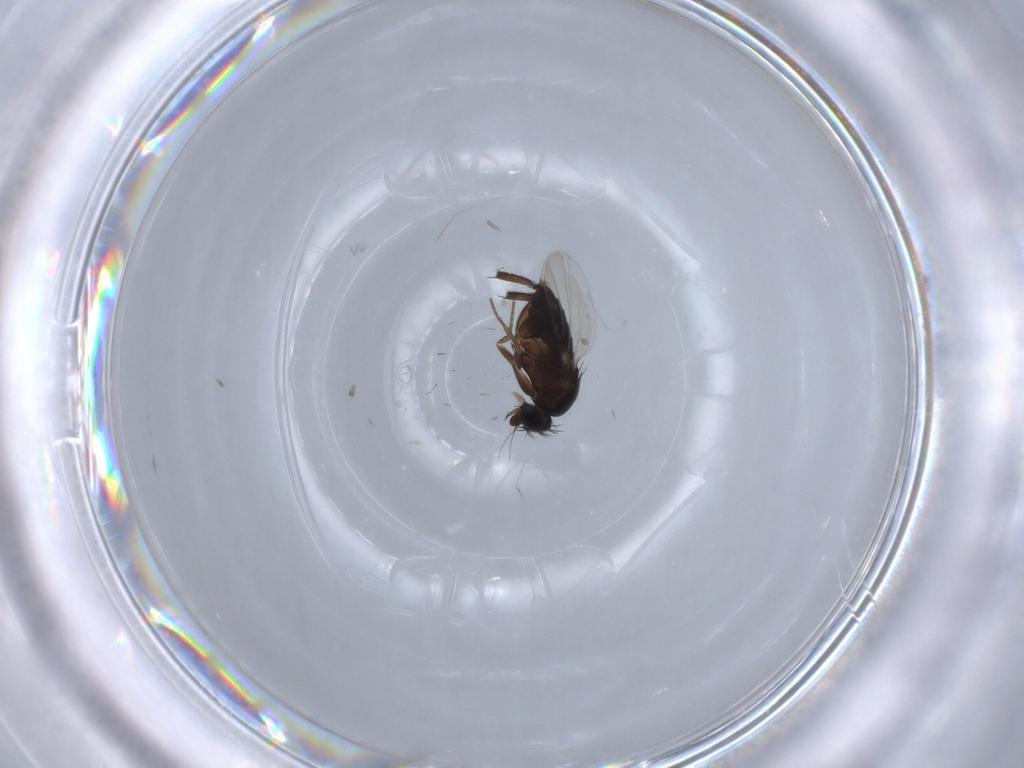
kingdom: Animalia
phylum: Arthropoda
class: Insecta
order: Diptera
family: Phoridae
